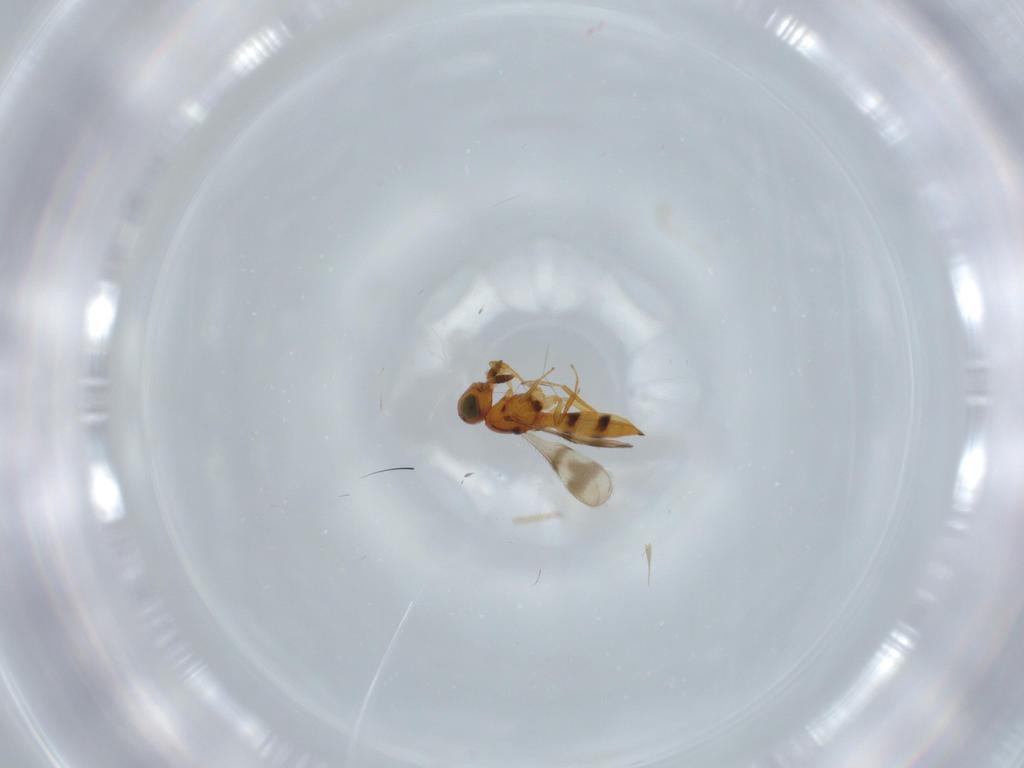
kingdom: Animalia
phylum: Arthropoda
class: Insecta
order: Hymenoptera
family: Scelionidae
